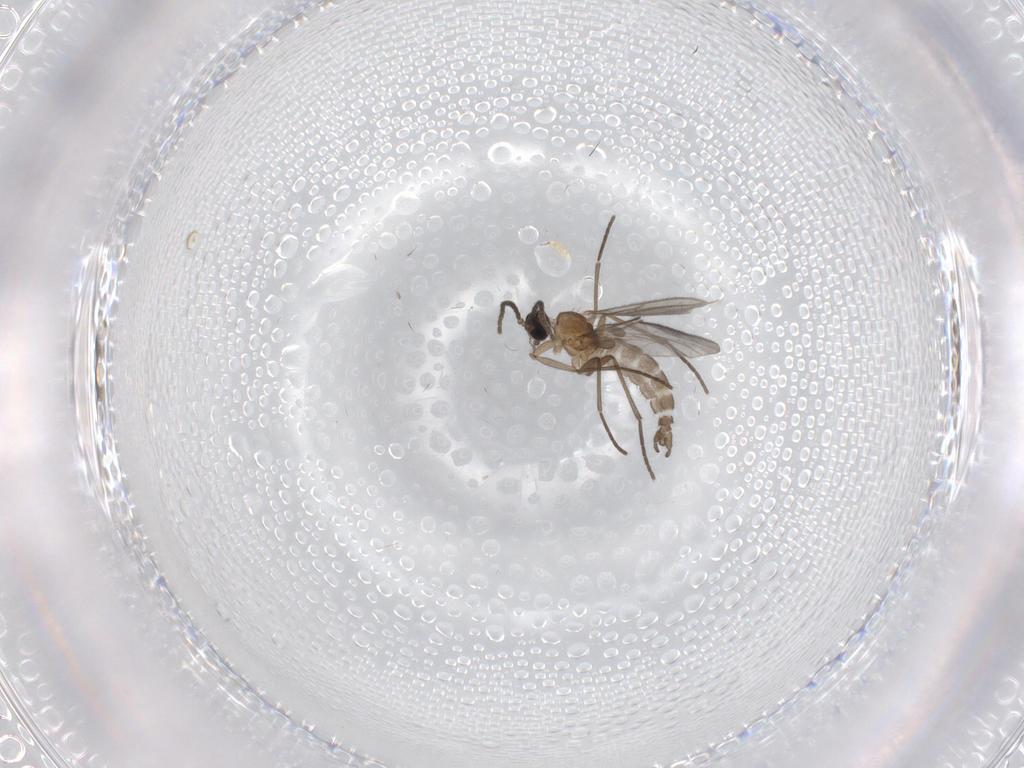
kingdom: Animalia
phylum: Arthropoda
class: Insecta
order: Diptera
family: Sciaridae
